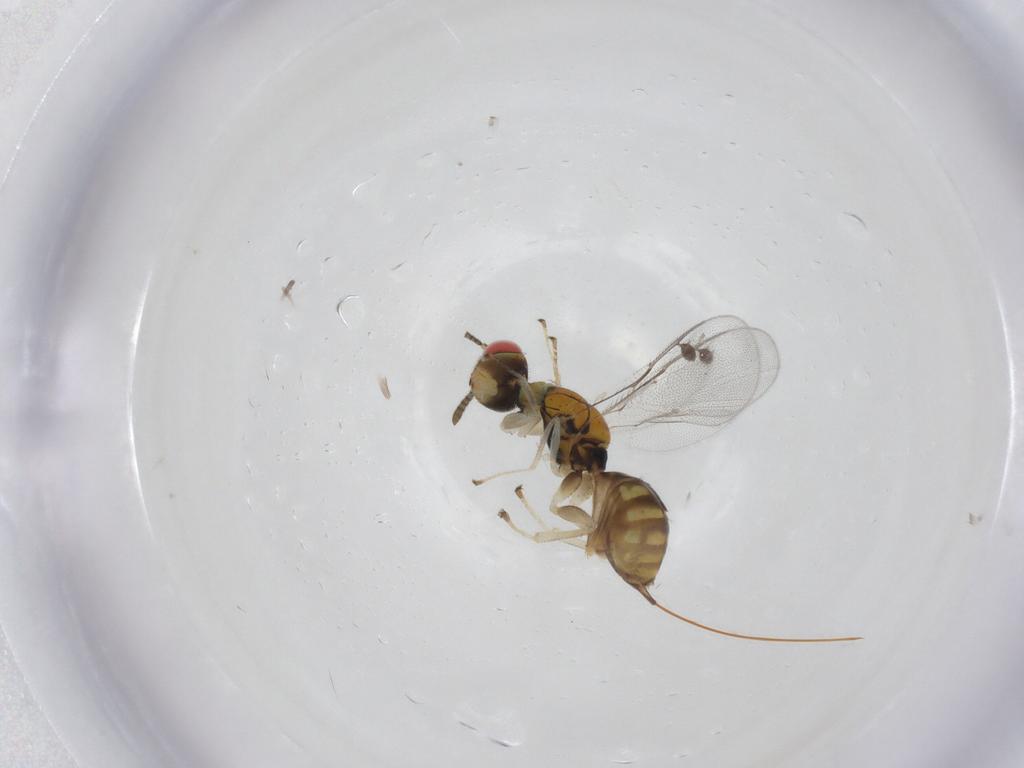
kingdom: Animalia
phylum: Arthropoda
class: Insecta
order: Hymenoptera
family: Megastigmidae
